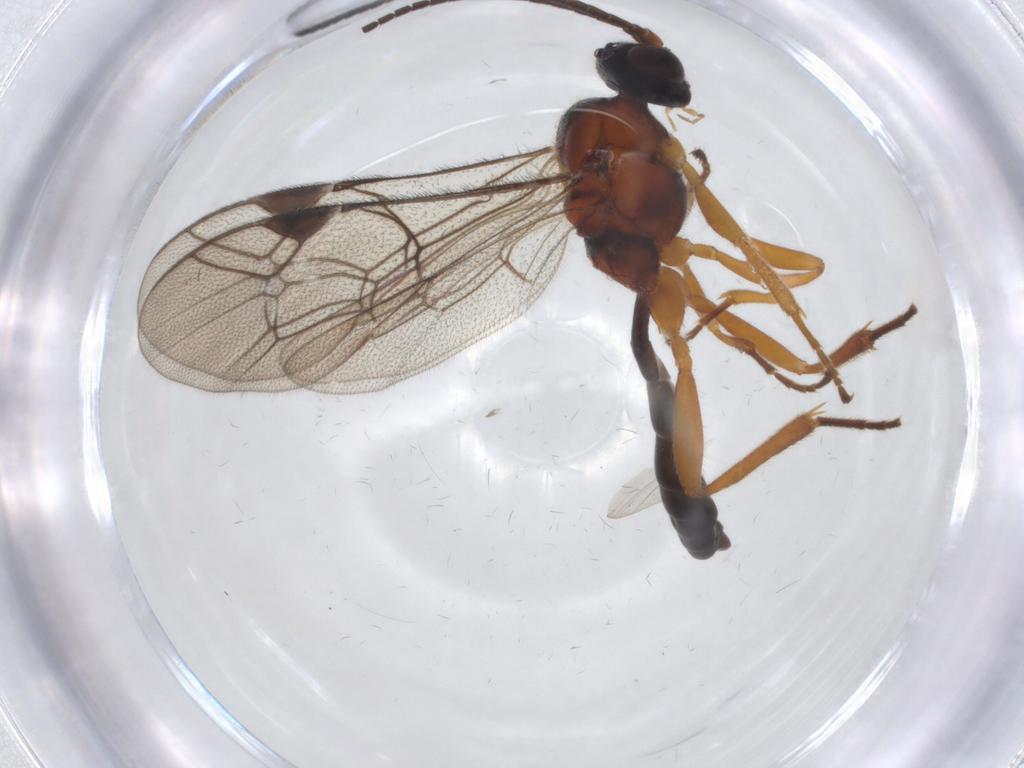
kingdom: Animalia
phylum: Arthropoda
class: Insecta
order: Hymenoptera
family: Ichneumonidae
